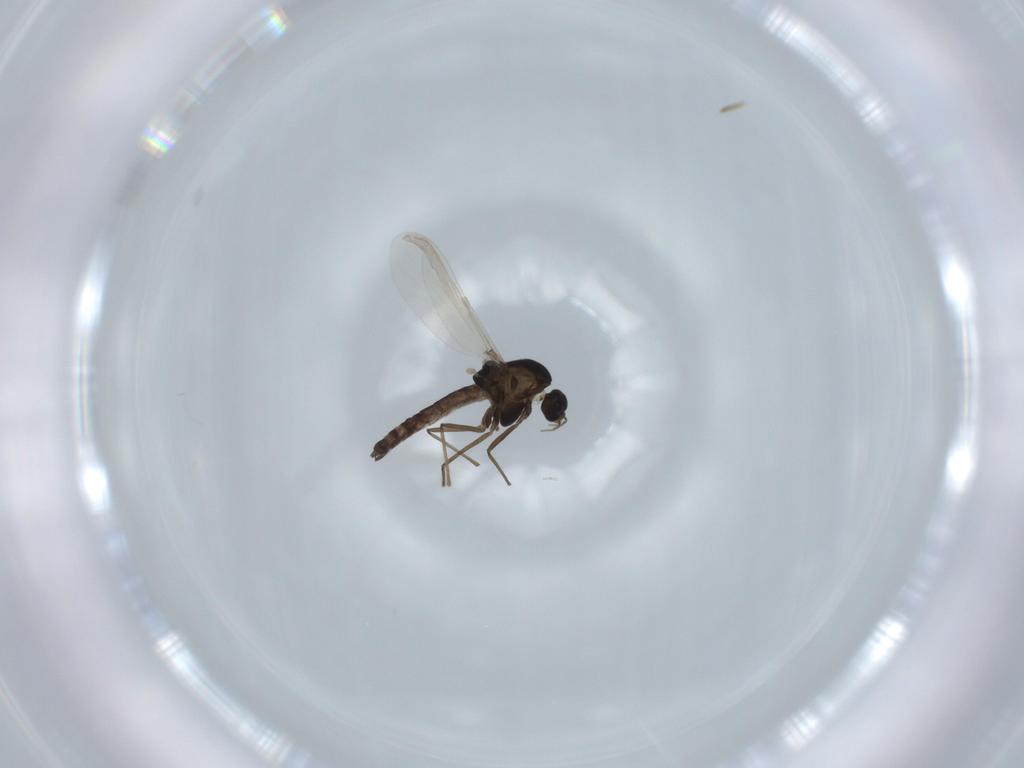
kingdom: Animalia
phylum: Arthropoda
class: Insecta
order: Diptera
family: Chironomidae
